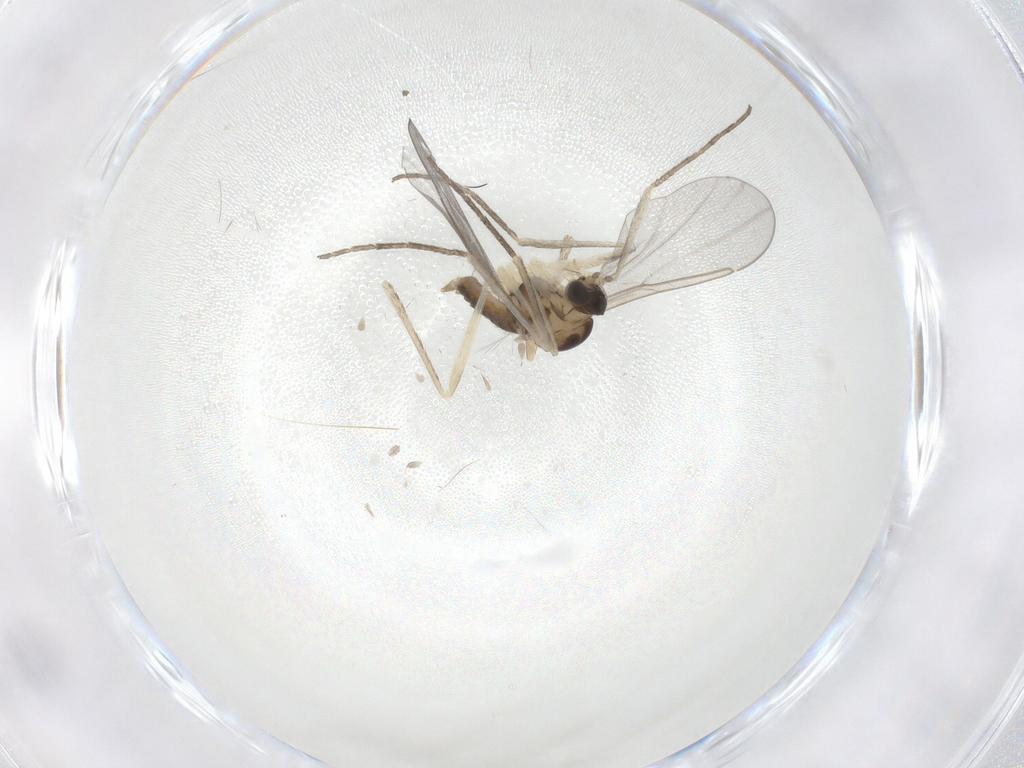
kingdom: Animalia
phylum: Arthropoda
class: Insecta
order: Diptera
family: Cecidomyiidae
